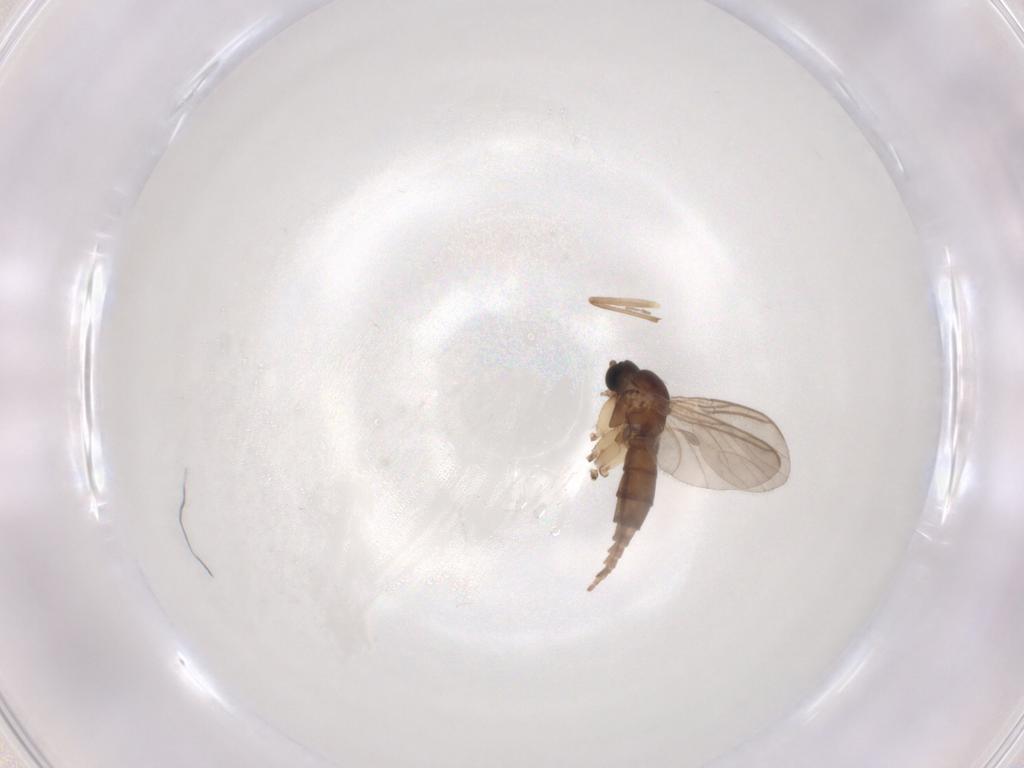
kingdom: Animalia
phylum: Arthropoda
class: Insecta
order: Diptera
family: Sciaridae
